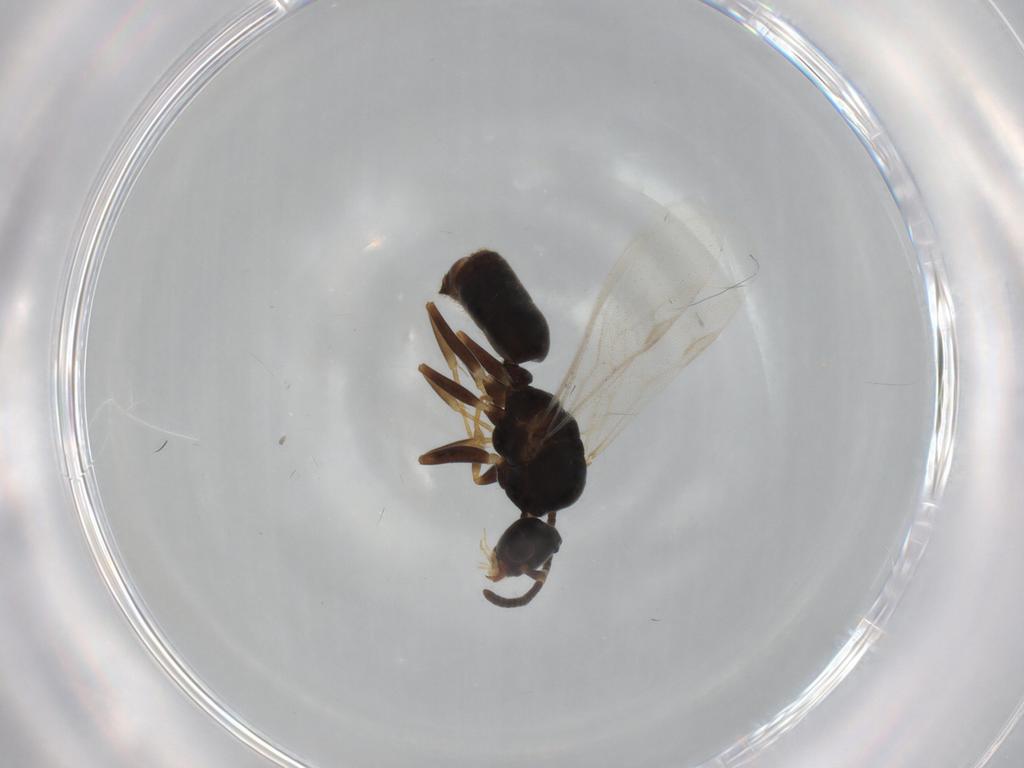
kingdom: Animalia
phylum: Arthropoda
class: Insecta
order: Hymenoptera
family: Formicidae
